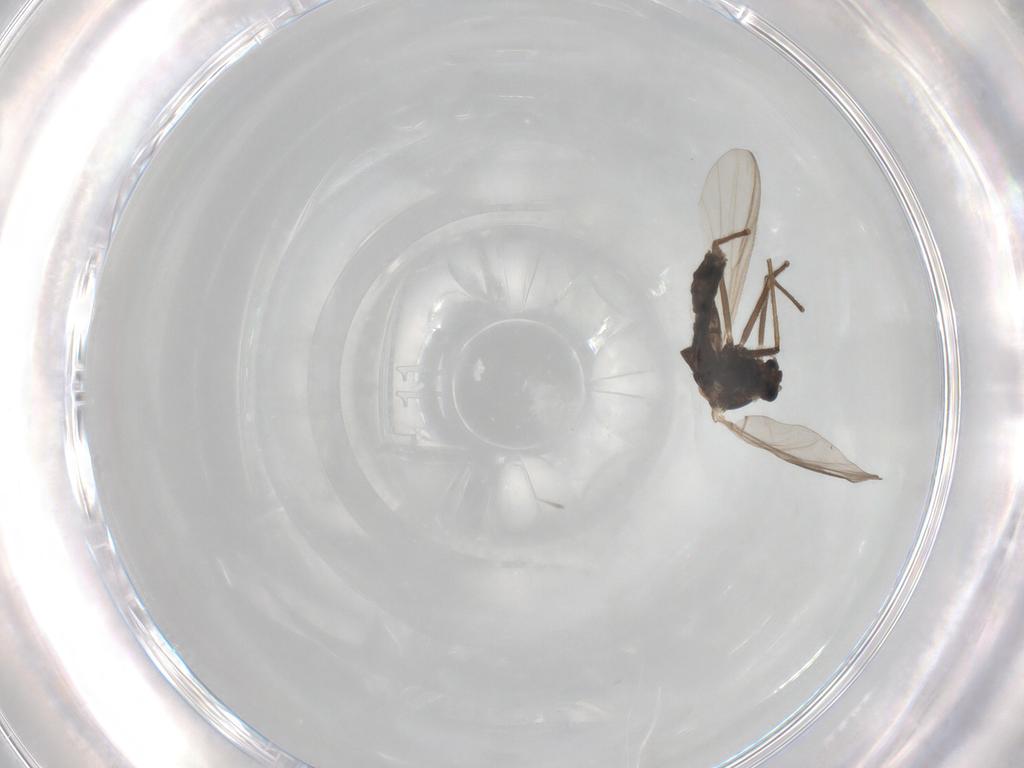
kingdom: Animalia
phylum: Arthropoda
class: Insecta
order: Diptera
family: Chironomidae
